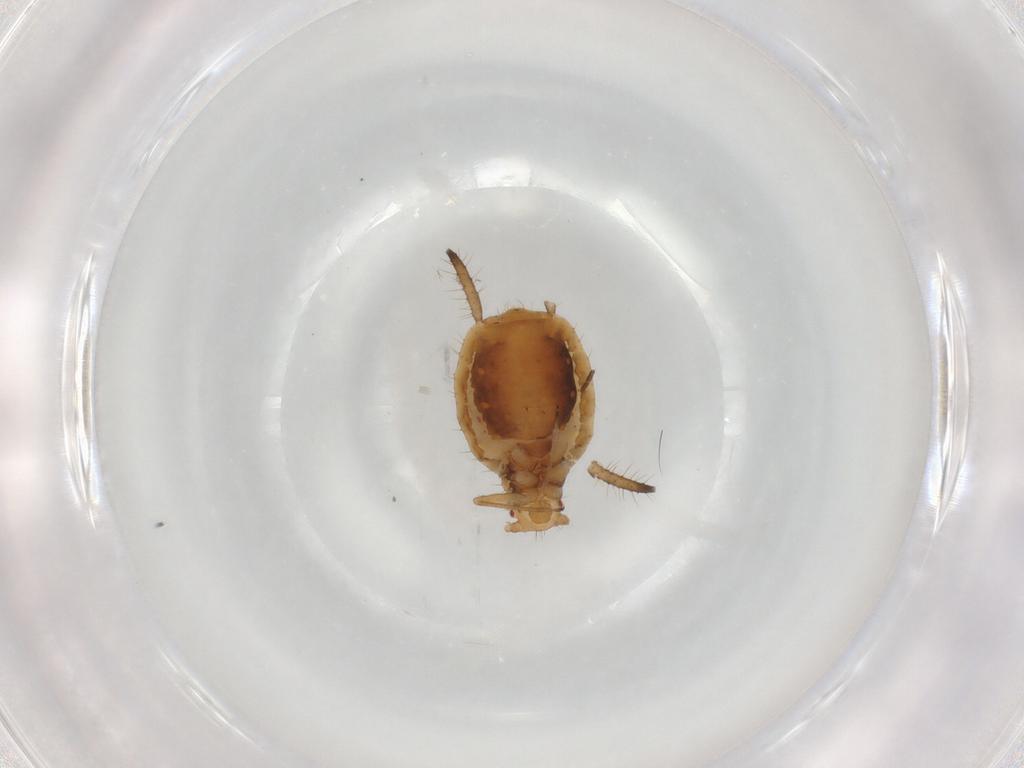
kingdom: Animalia
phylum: Arthropoda
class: Insecta
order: Hemiptera
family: Aphididae
